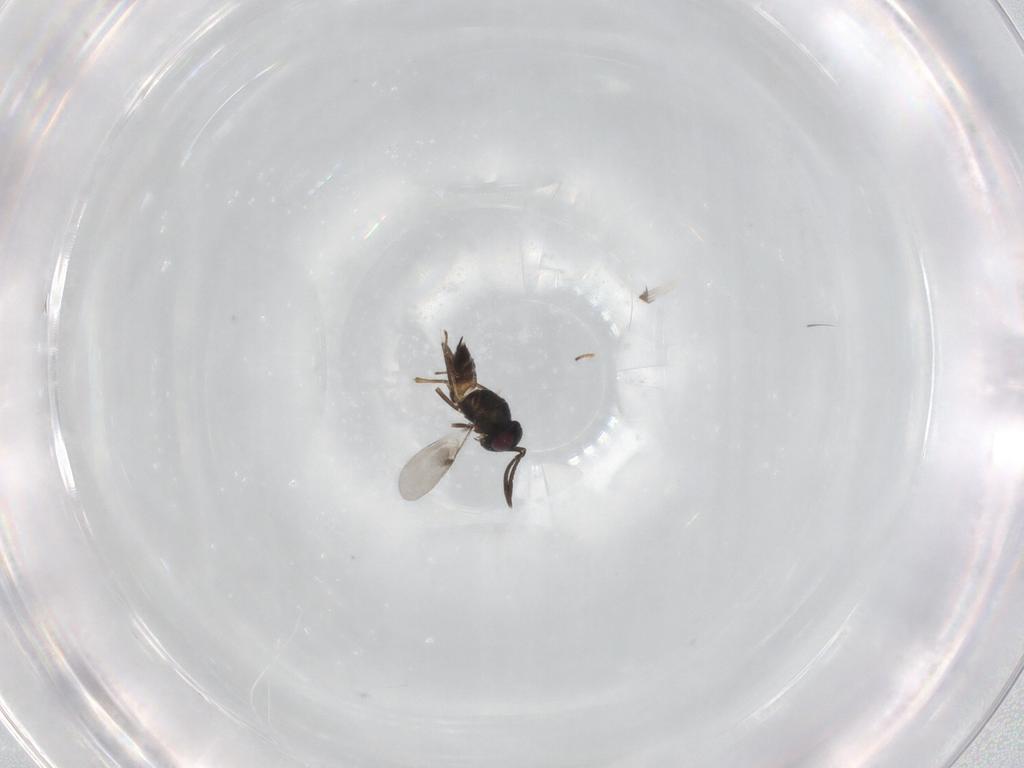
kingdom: Animalia
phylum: Arthropoda
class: Insecta
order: Hymenoptera
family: Encyrtidae
